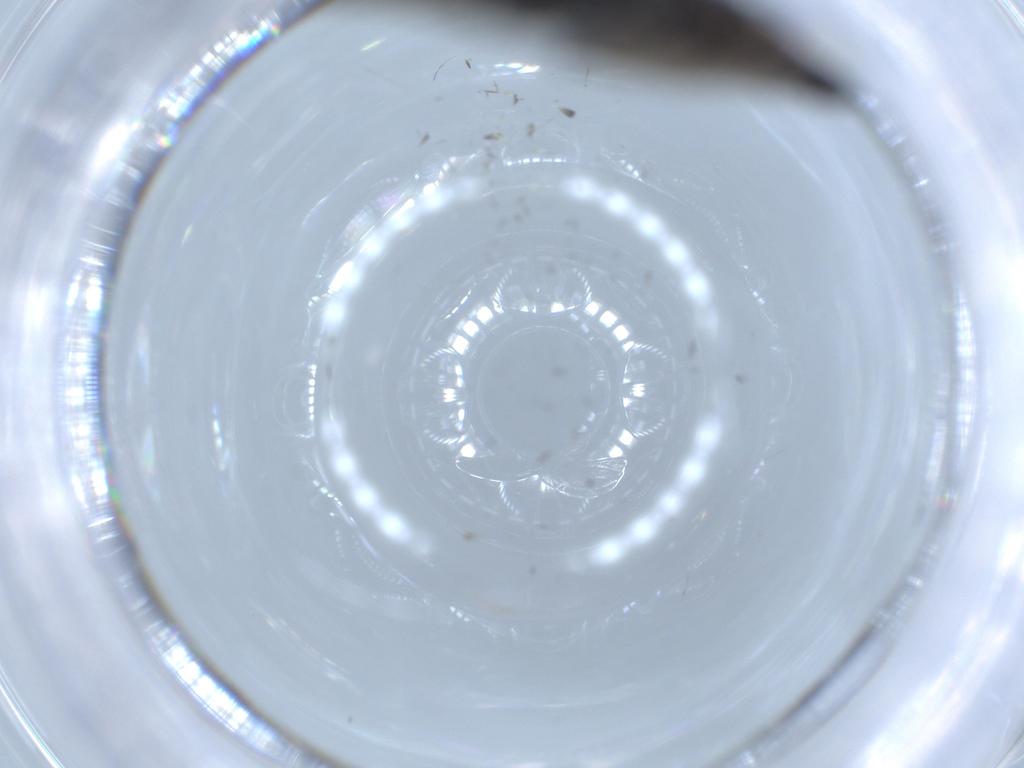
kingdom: Animalia
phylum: Arthropoda
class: Insecta
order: Diptera
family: Sciaridae
